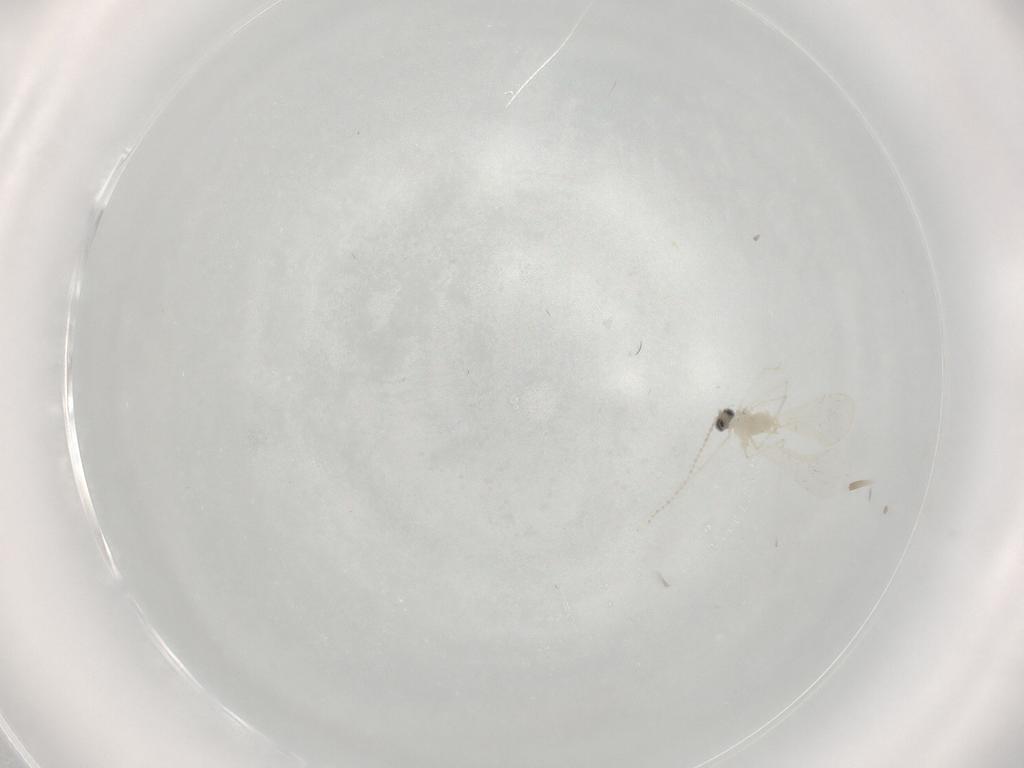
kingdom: Animalia
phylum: Arthropoda
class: Insecta
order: Diptera
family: Cecidomyiidae
